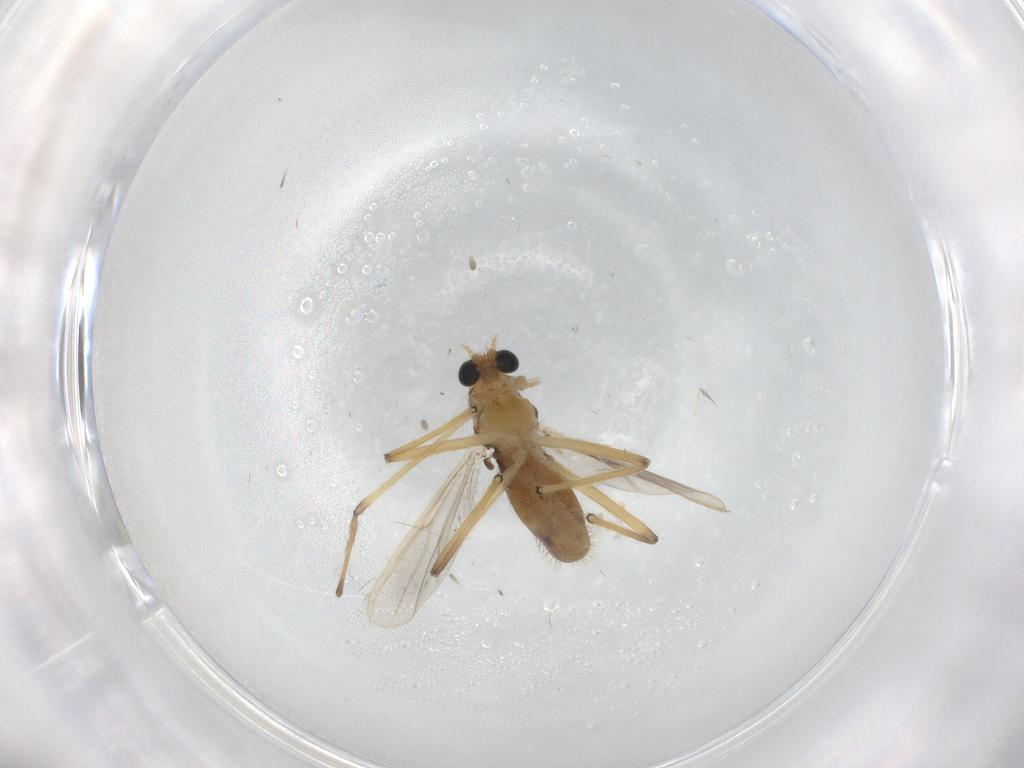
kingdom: Animalia
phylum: Arthropoda
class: Insecta
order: Diptera
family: Chironomidae
